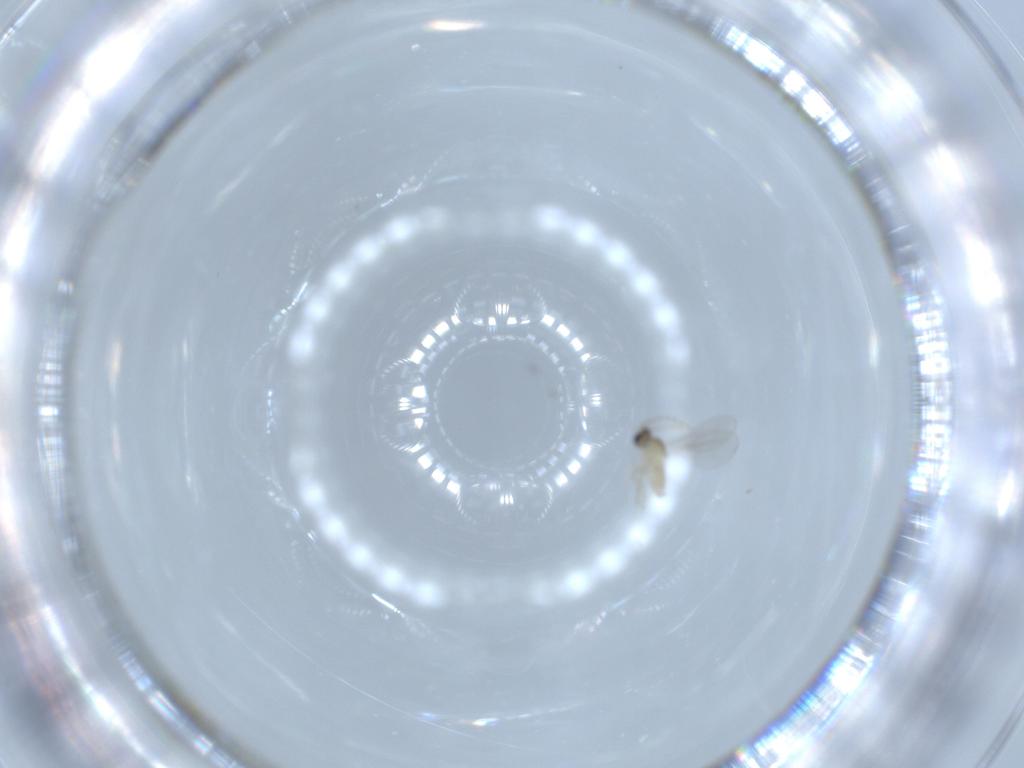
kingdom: Animalia
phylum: Arthropoda
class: Insecta
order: Diptera
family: Cecidomyiidae
